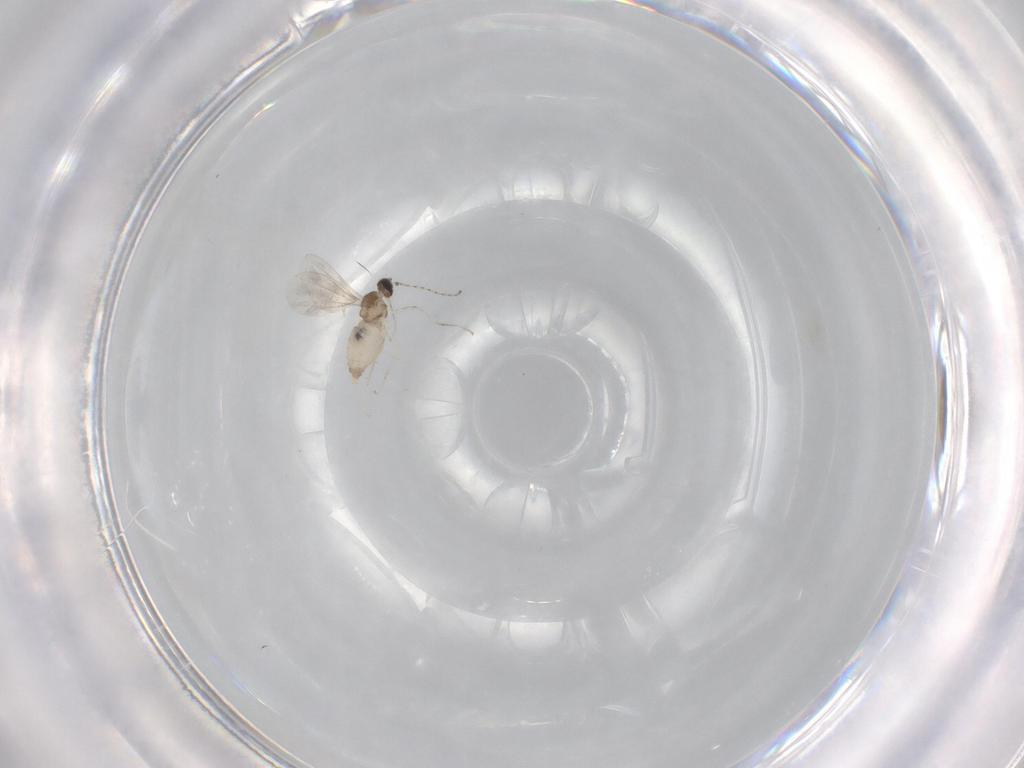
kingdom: Animalia
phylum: Arthropoda
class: Insecta
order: Diptera
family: Cecidomyiidae
